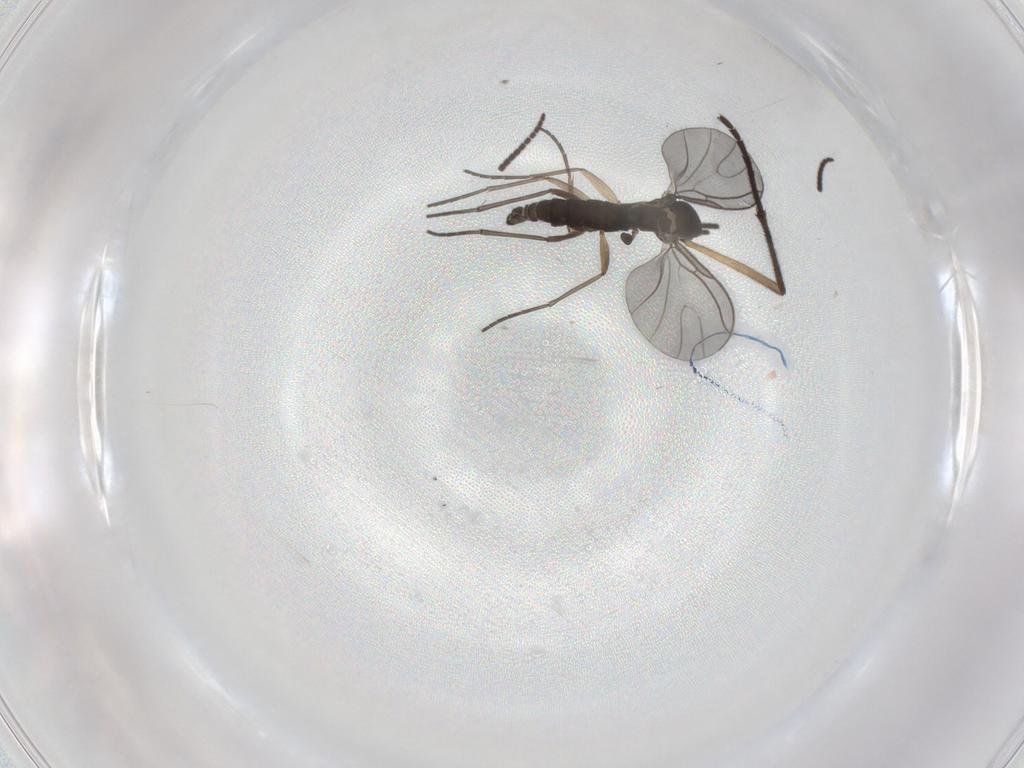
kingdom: Animalia
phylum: Arthropoda
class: Insecta
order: Diptera
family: Sciaridae
